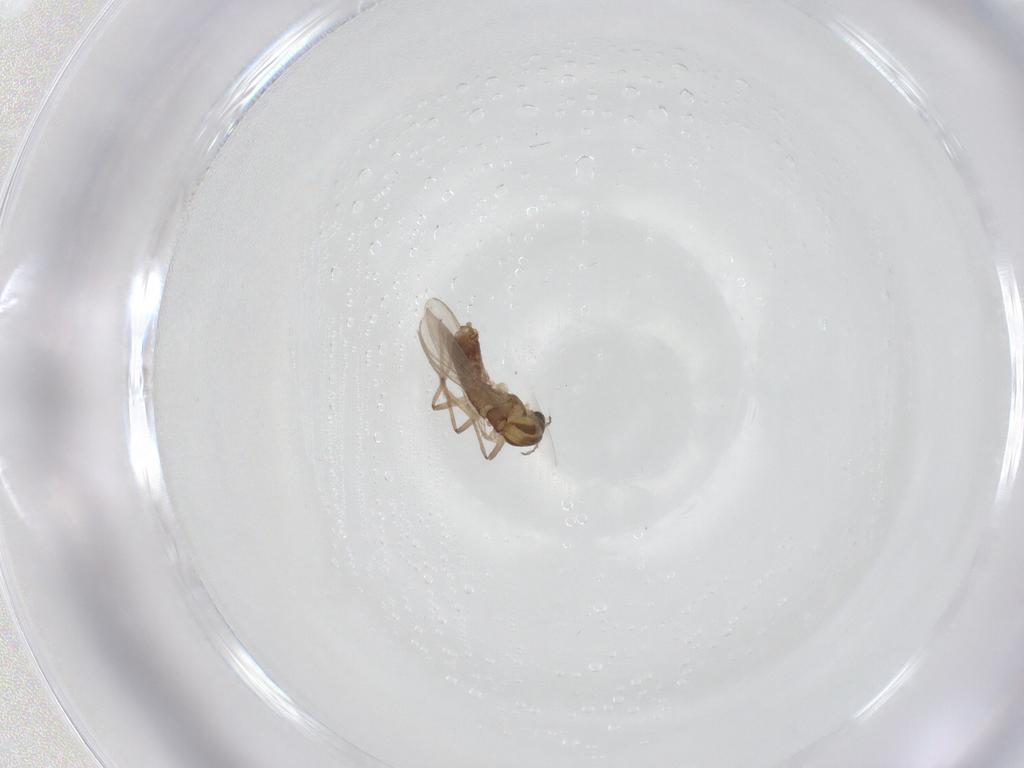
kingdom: Animalia
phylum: Arthropoda
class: Insecta
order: Diptera
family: Chironomidae
